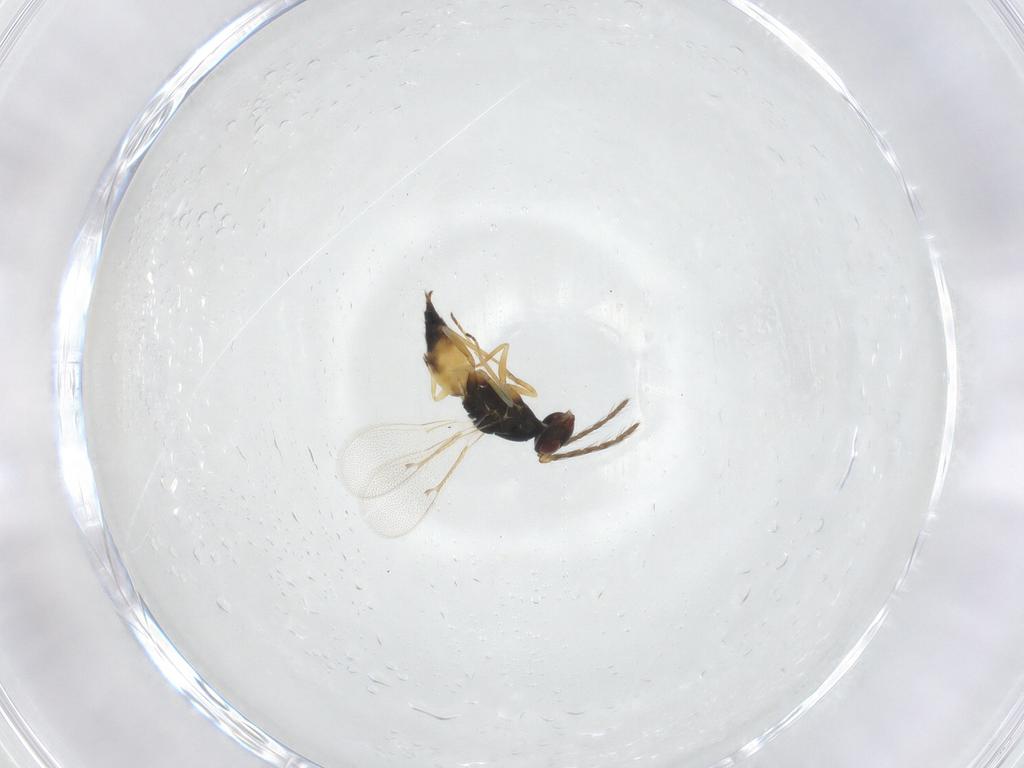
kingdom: Animalia
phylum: Arthropoda
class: Insecta
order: Hymenoptera
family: Eulophidae
